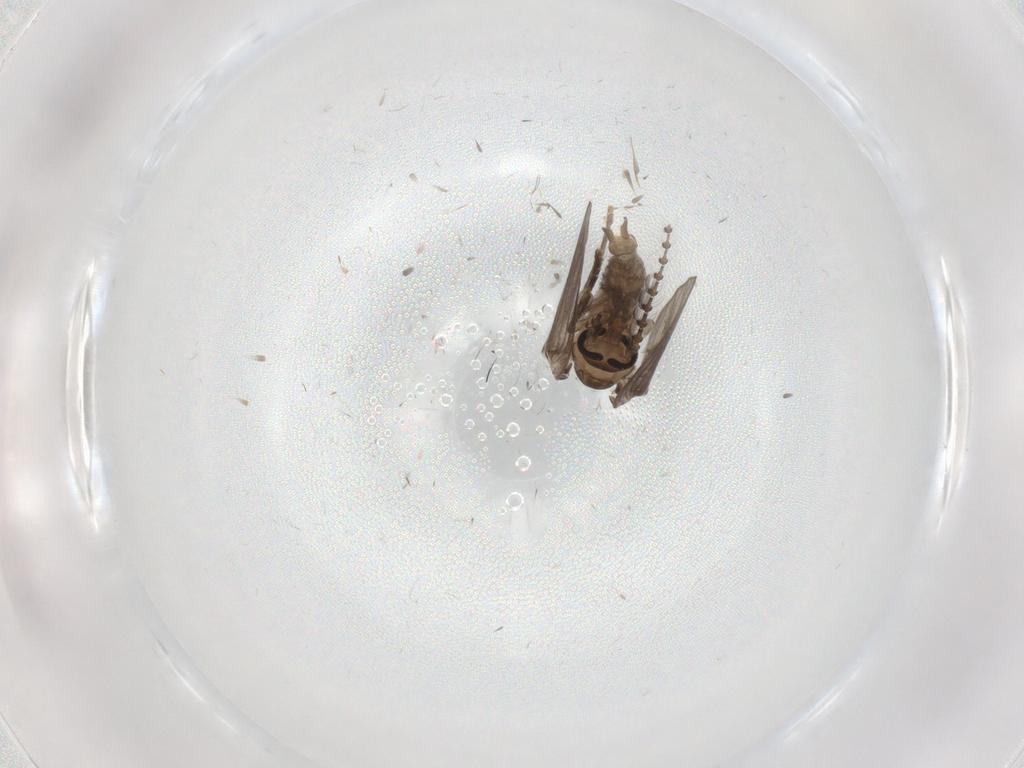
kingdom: Animalia
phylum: Arthropoda
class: Insecta
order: Diptera
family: Psychodidae
